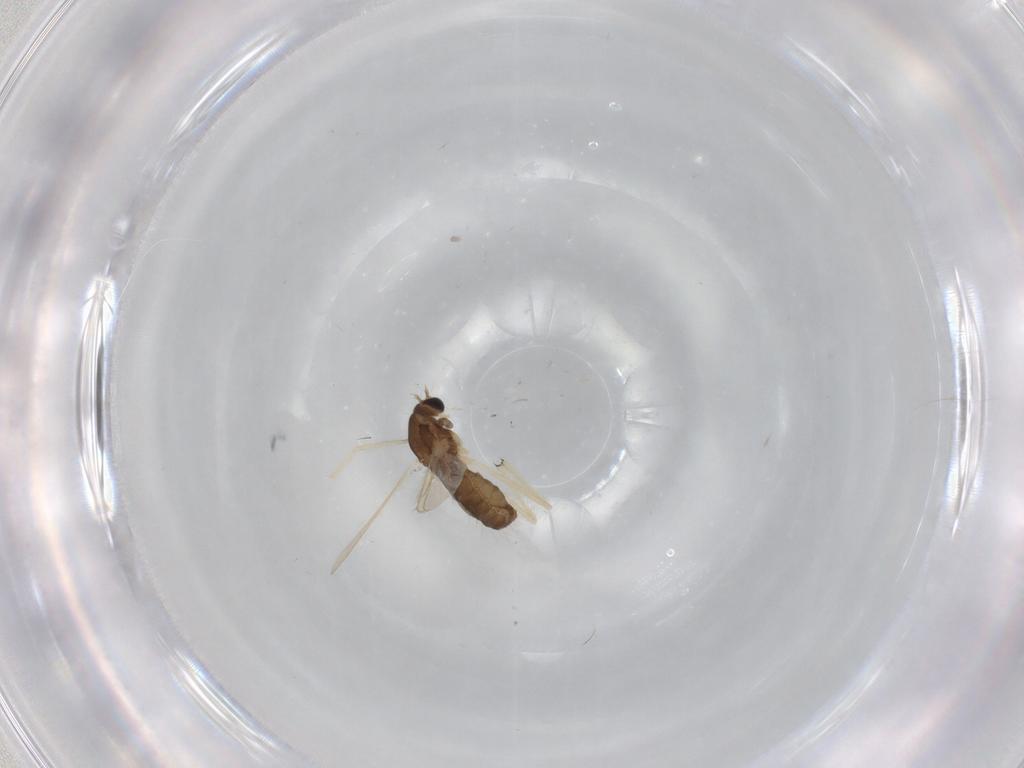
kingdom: Animalia
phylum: Arthropoda
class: Insecta
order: Diptera
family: Chironomidae
